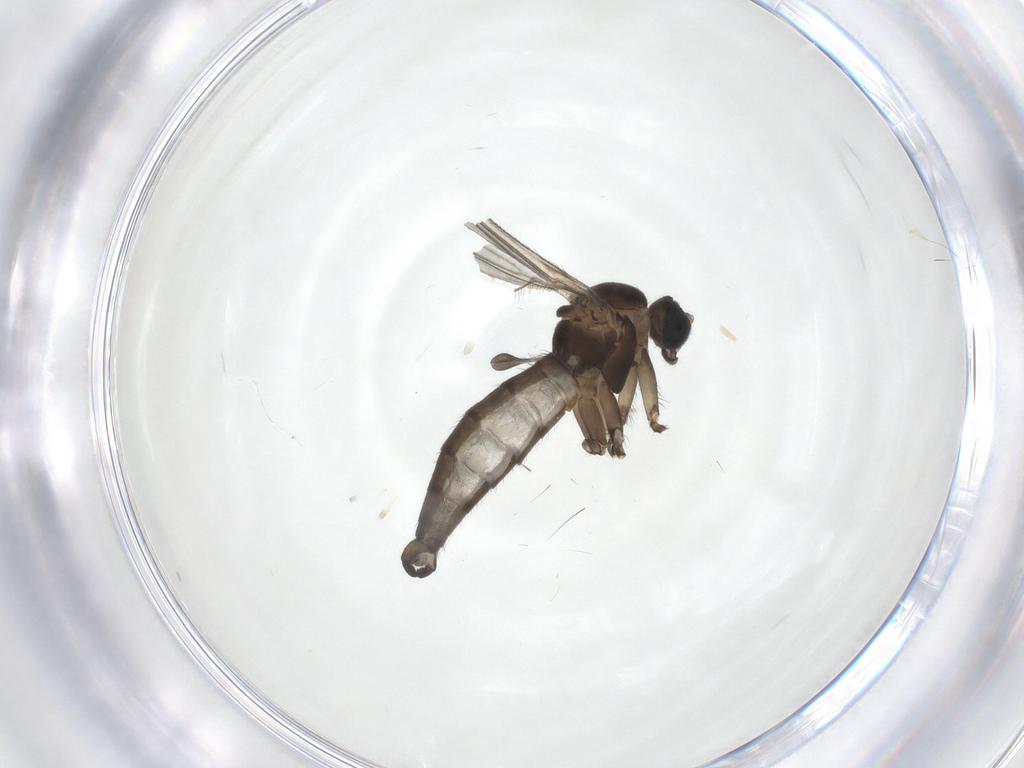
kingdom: Animalia
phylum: Arthropoda
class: Insecta
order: Diptera
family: Sciaridae
